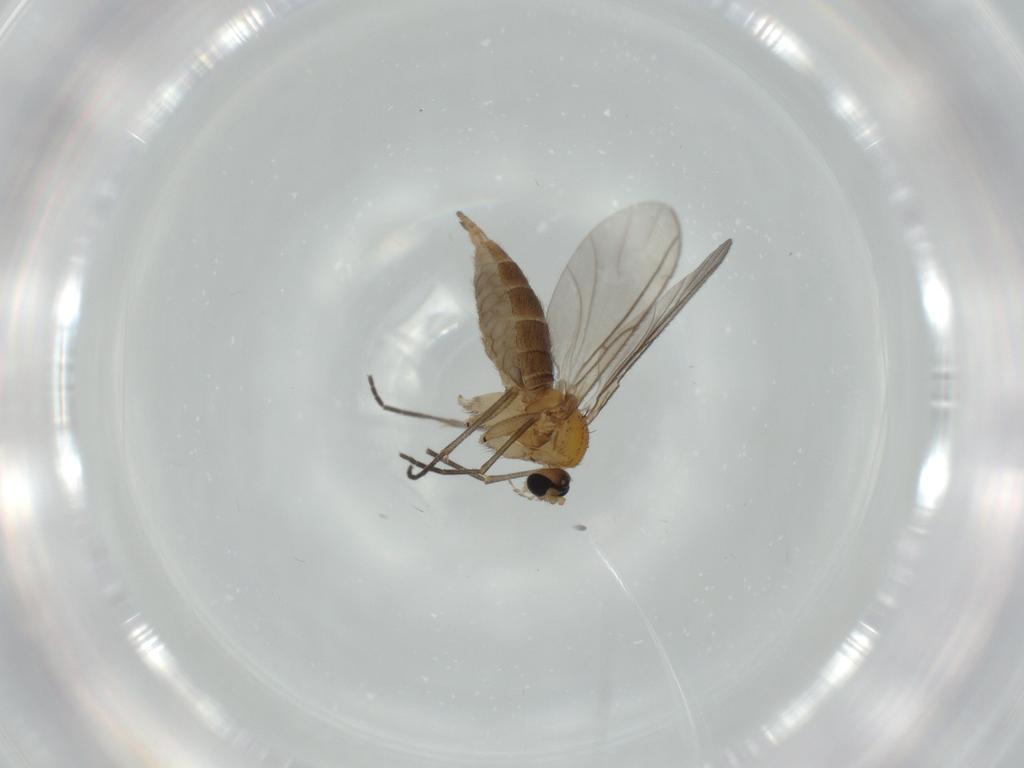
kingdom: Animalia
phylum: Arthropoda
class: Insecta
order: Diptera
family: Sciaridae
